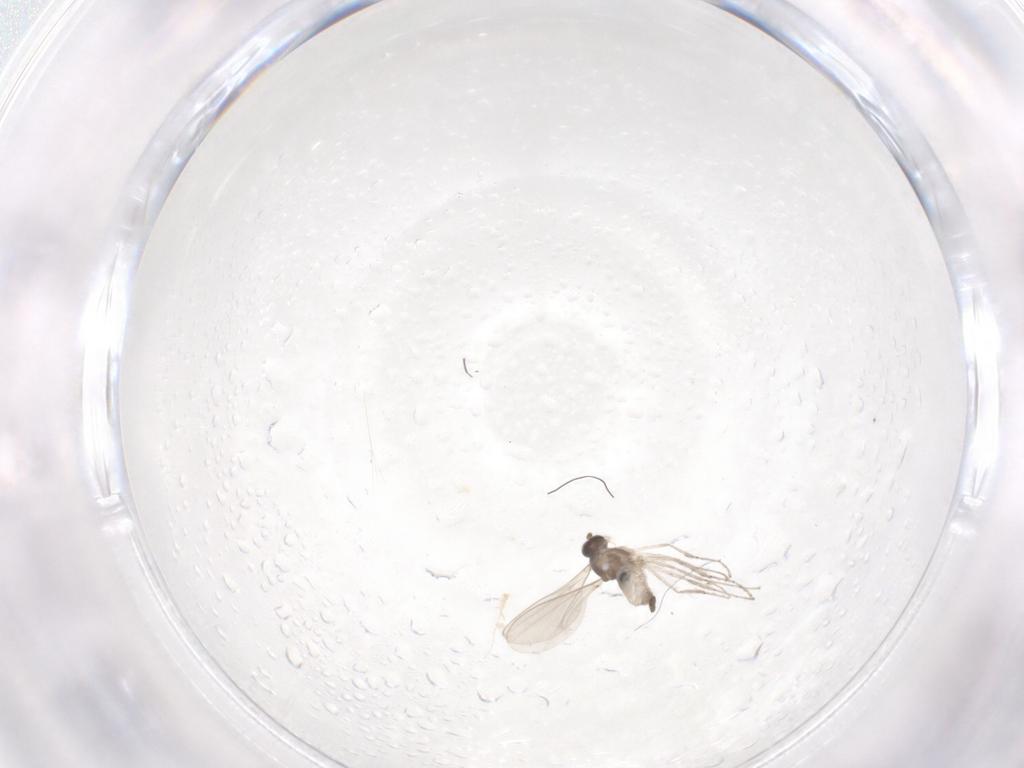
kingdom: Animalia
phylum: Arthropoda
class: Insecta
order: Diptera
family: Cecidomyiidae
